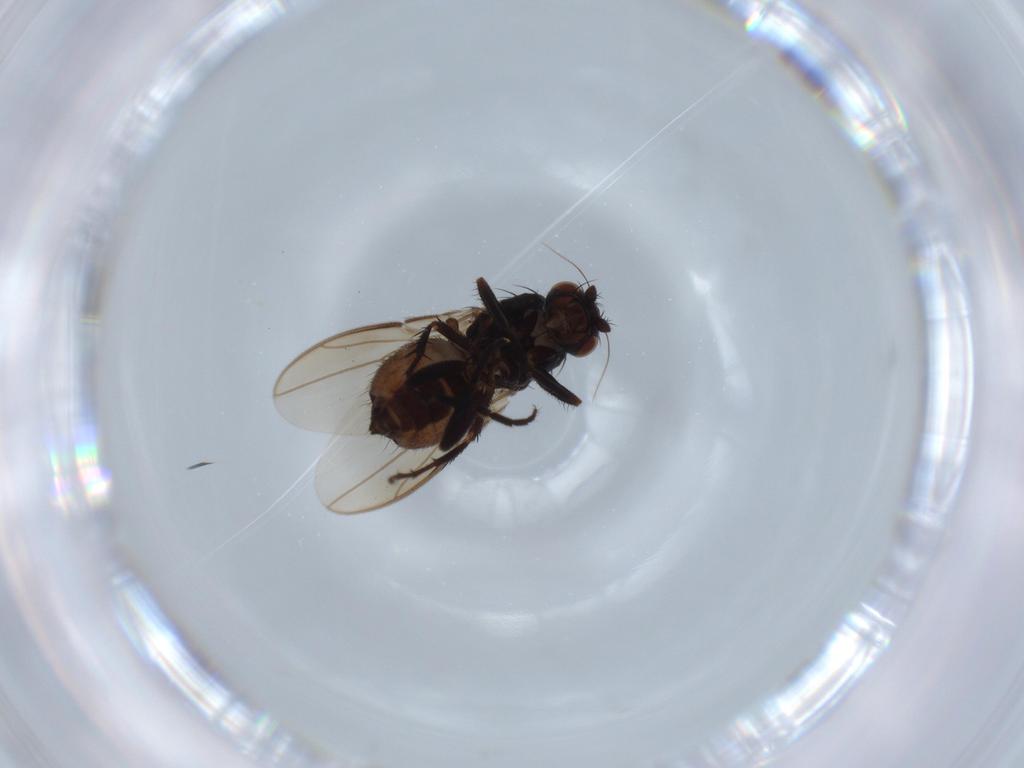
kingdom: Animalia
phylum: Arthropoda
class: Insecta
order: Diptera
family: Sphaeroceridae
